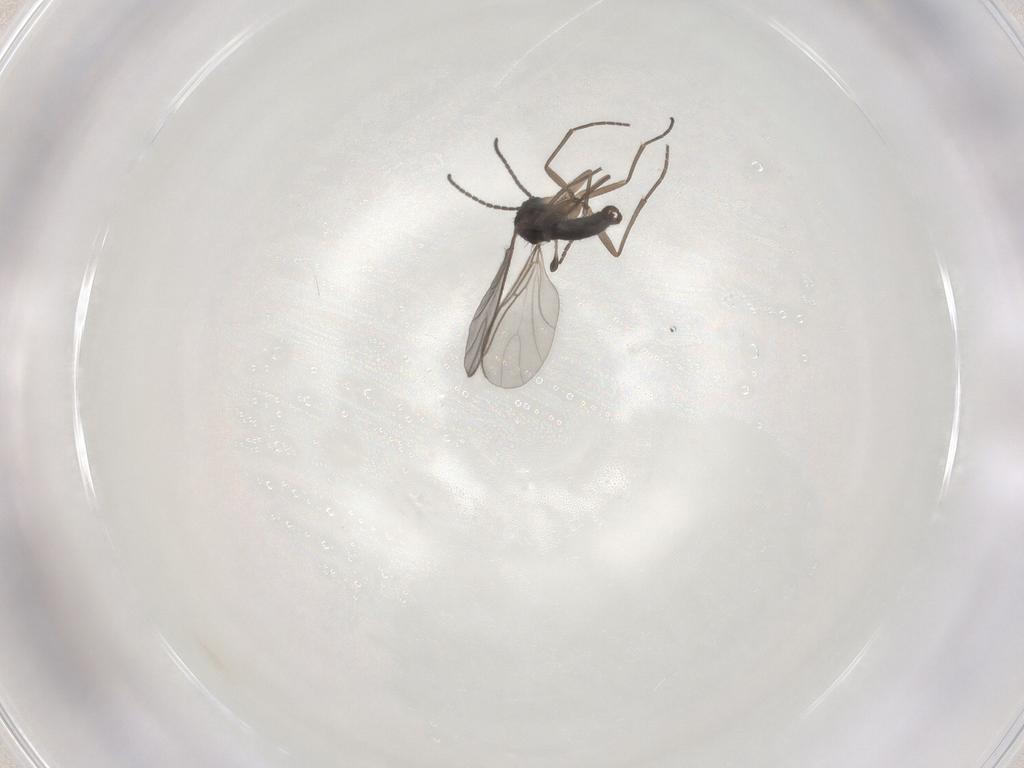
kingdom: Animalia
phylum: Arthropoda
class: Insecta
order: Diptera
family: Sciaridae
